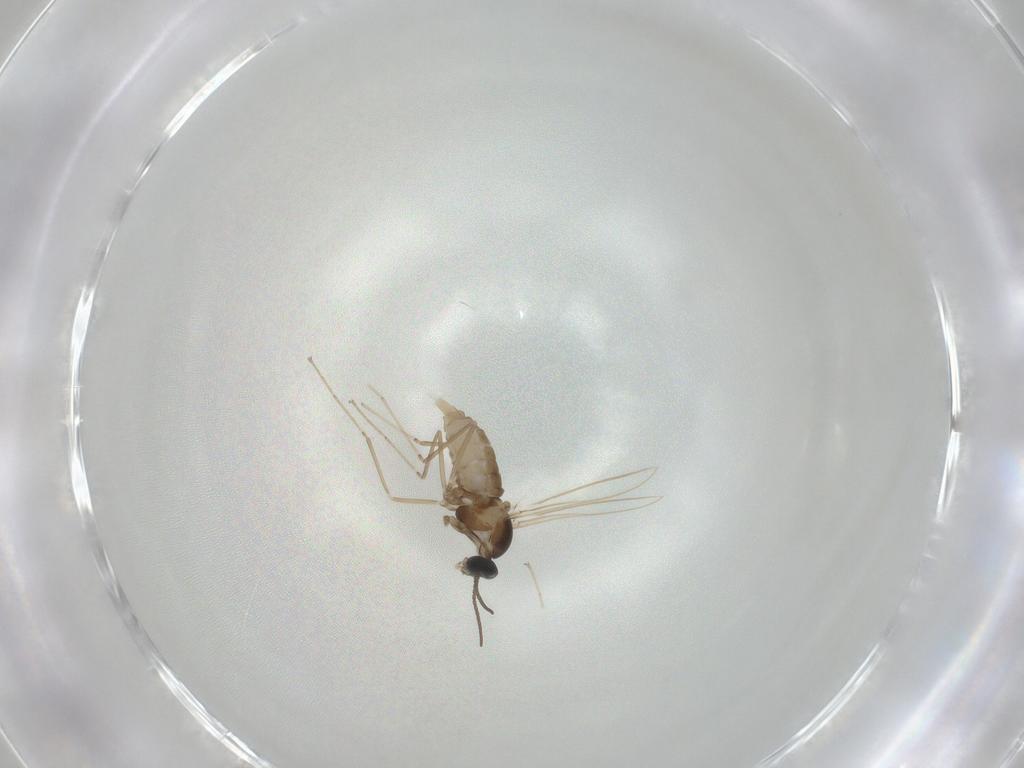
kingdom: Animalia
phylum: Arthropoda
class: Insecta
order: Diptera
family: Cecidomyiidae
